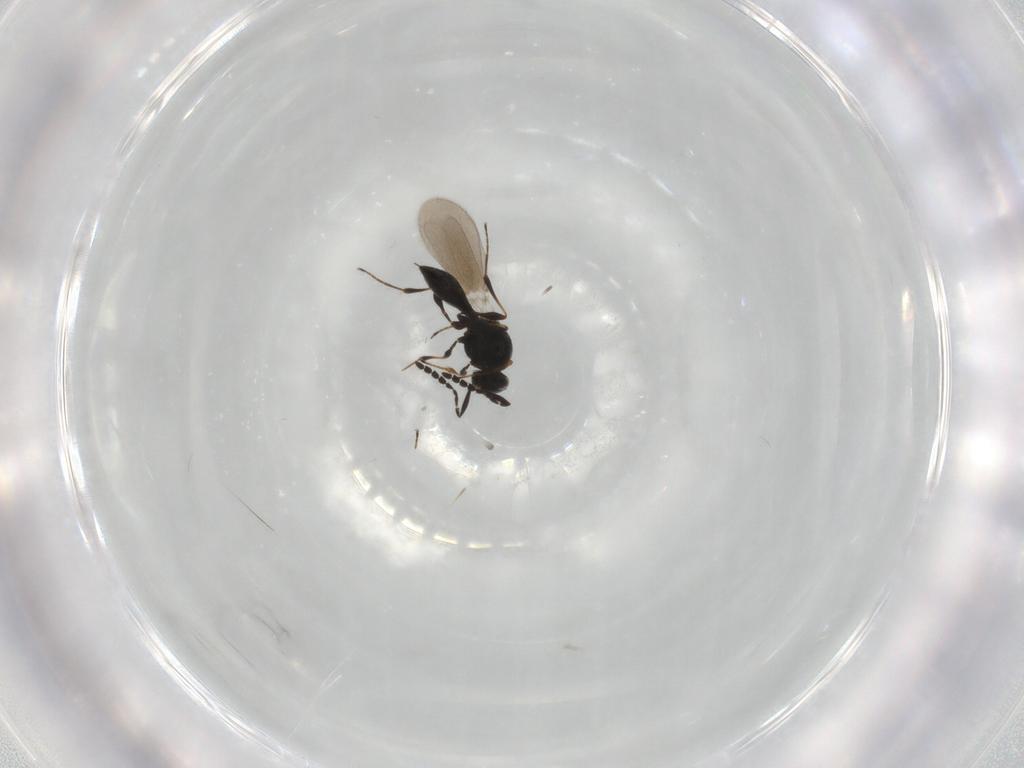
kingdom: Animalia
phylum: Arthropoda
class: Insecta
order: Hymenoptera
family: Platygastridae
